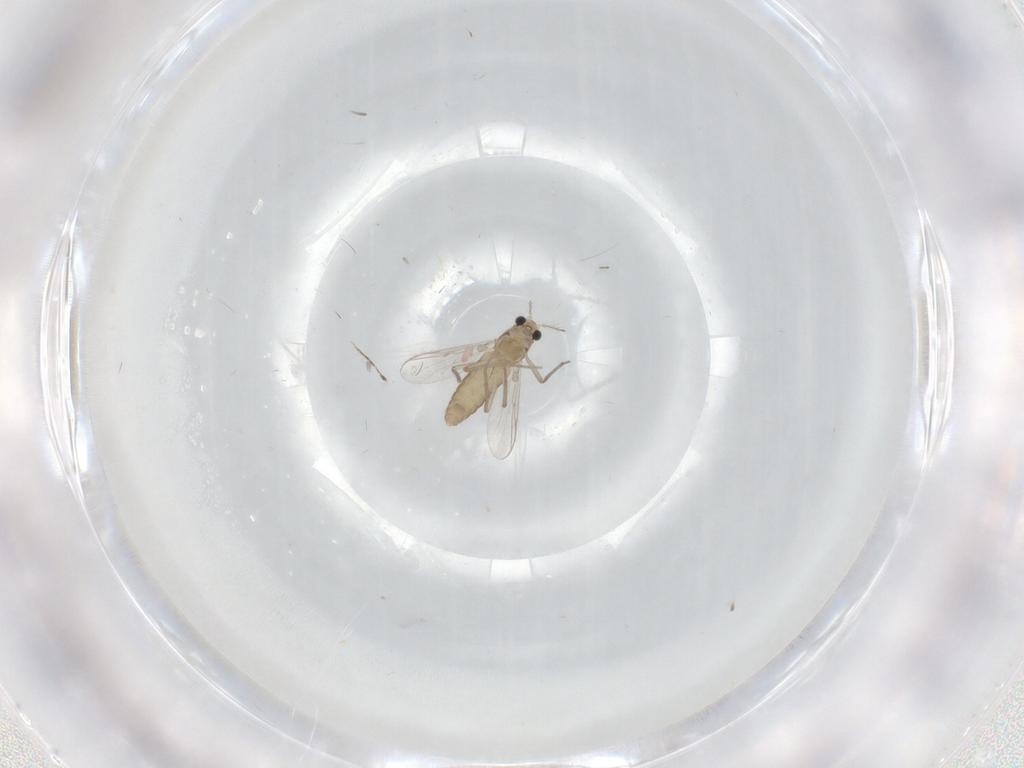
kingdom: Animalia
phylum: Arthropoda
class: Insecta
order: Diptera
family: Chironomidae
